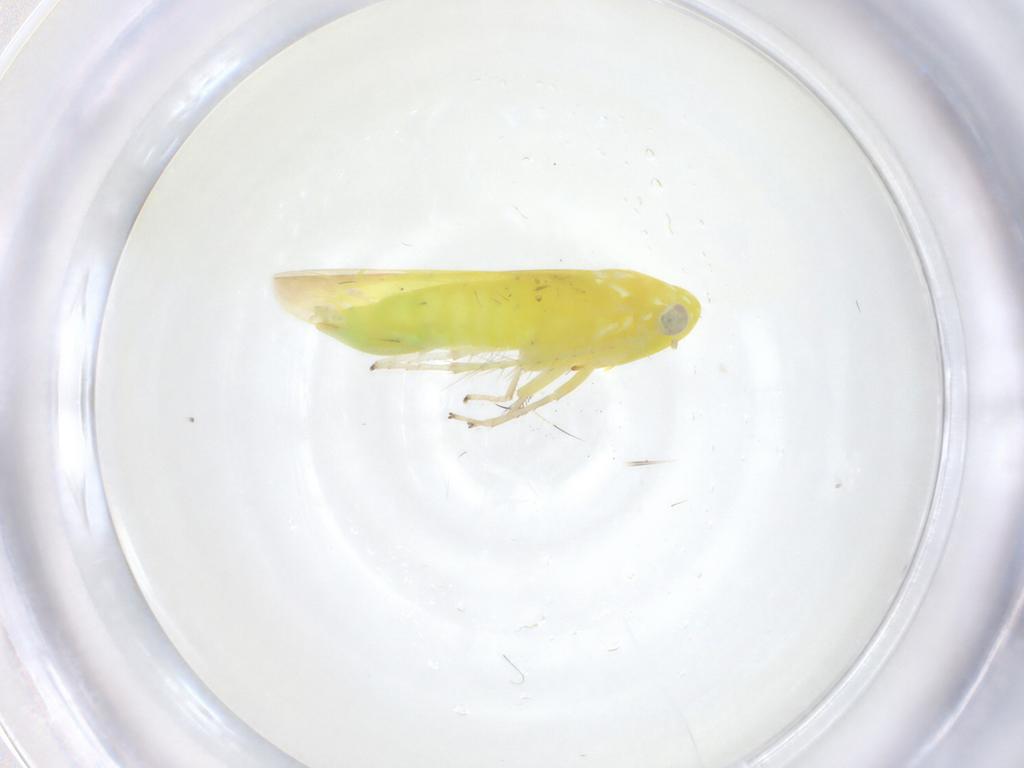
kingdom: Animalia
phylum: Arthropoda
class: Insecta
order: Hemiptera
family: Cicadellidae
